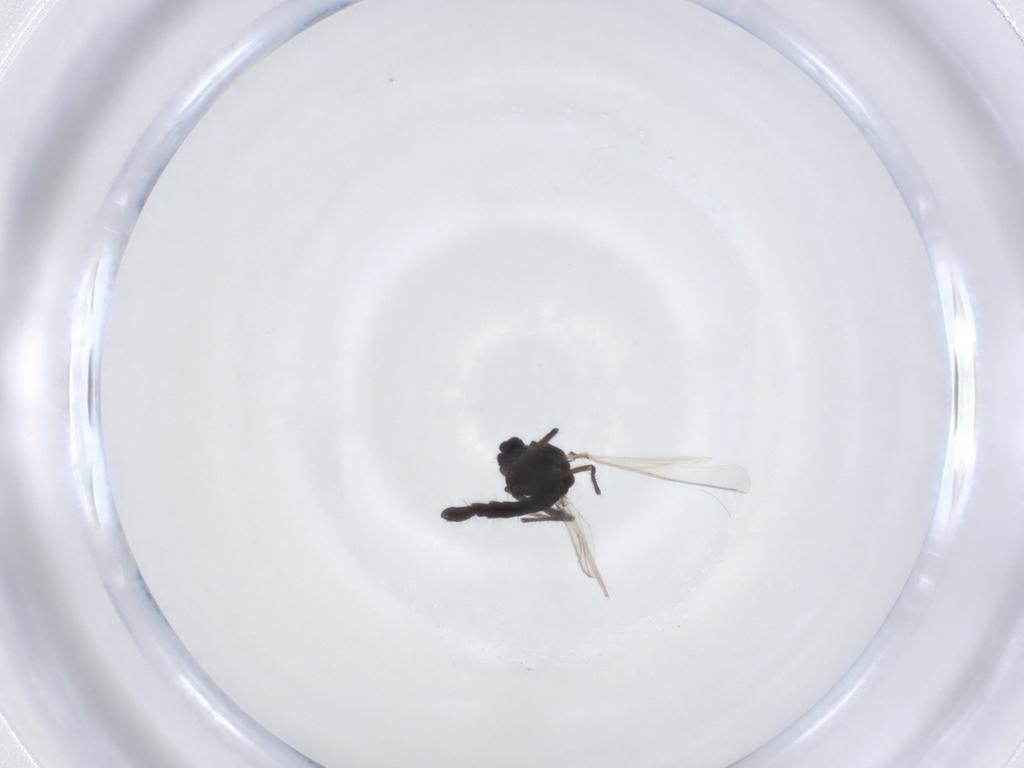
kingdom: Animalia
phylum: Arthropoda
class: Insecta
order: Diptera
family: Chironomidae
